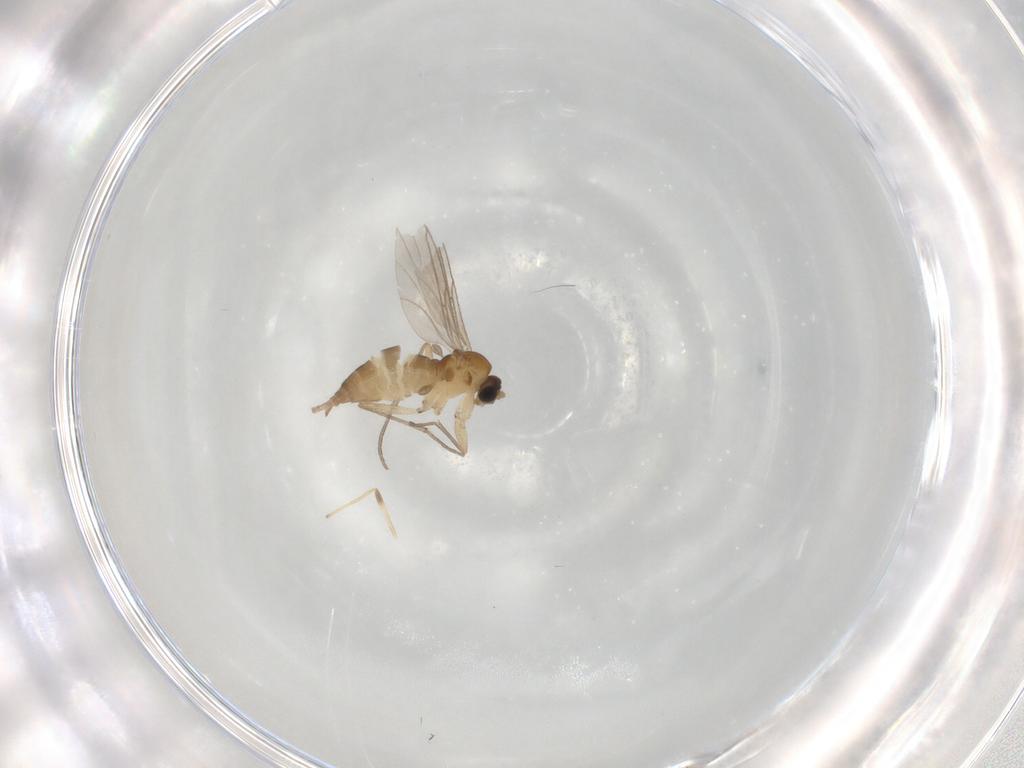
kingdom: Animalia
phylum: Arthropoda
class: Insecta
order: Diptera
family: Sciaridae
